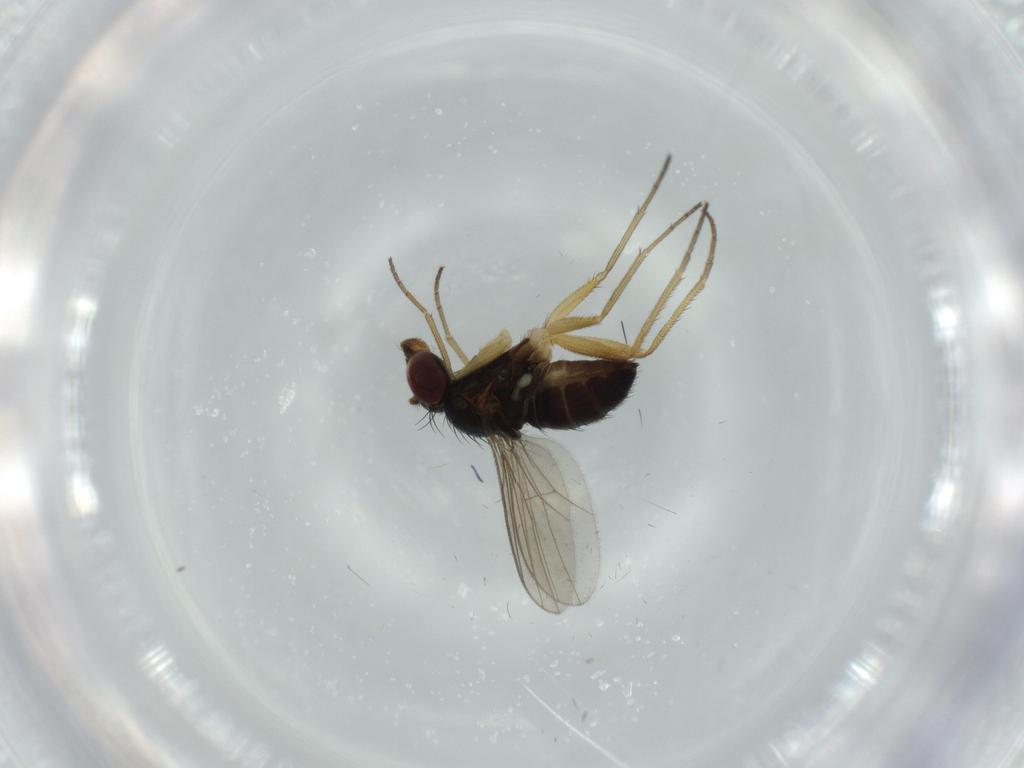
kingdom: Animalia
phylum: Arthropoda
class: Insecta
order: Diptera
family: Dolichopodidae
